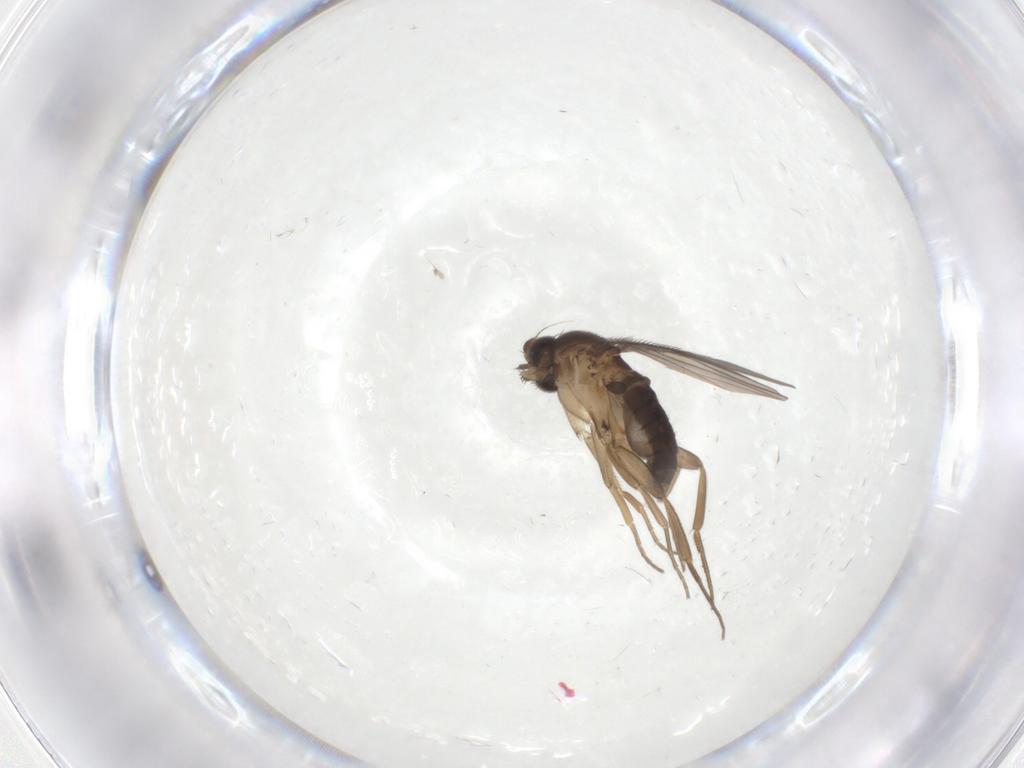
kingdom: Animalia
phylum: Arthropoda
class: Insecta
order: Diptera
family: Phoridae
